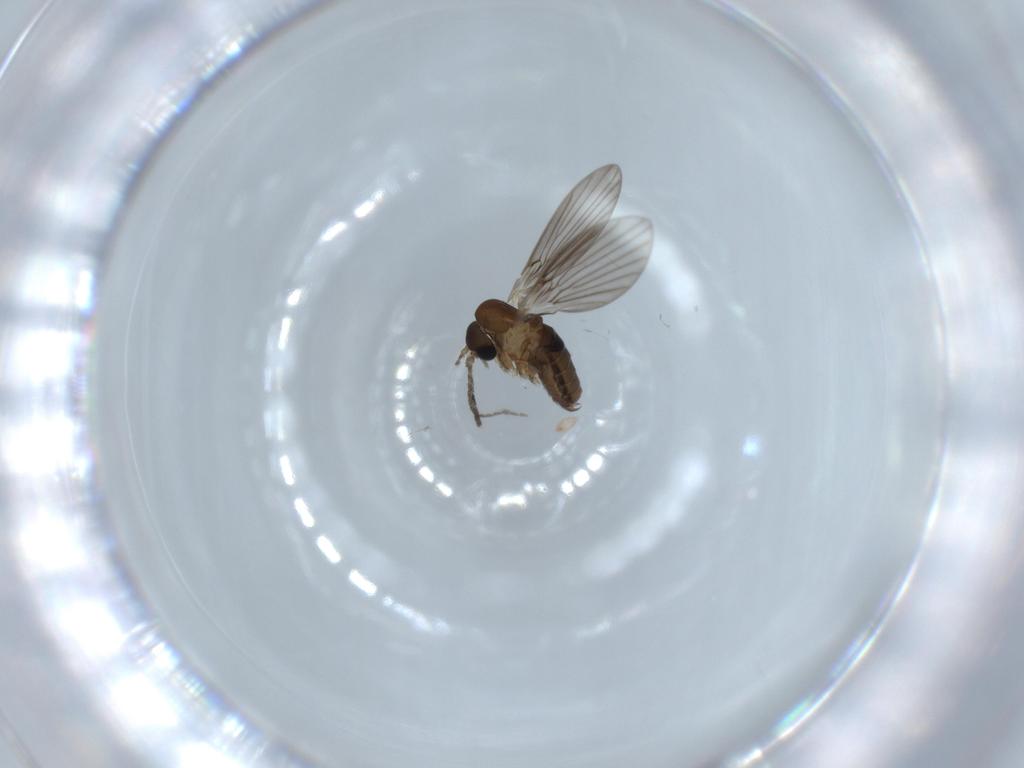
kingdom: Animalia
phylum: Arthropoda
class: Insecta
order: Diptera
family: Psychodidae
